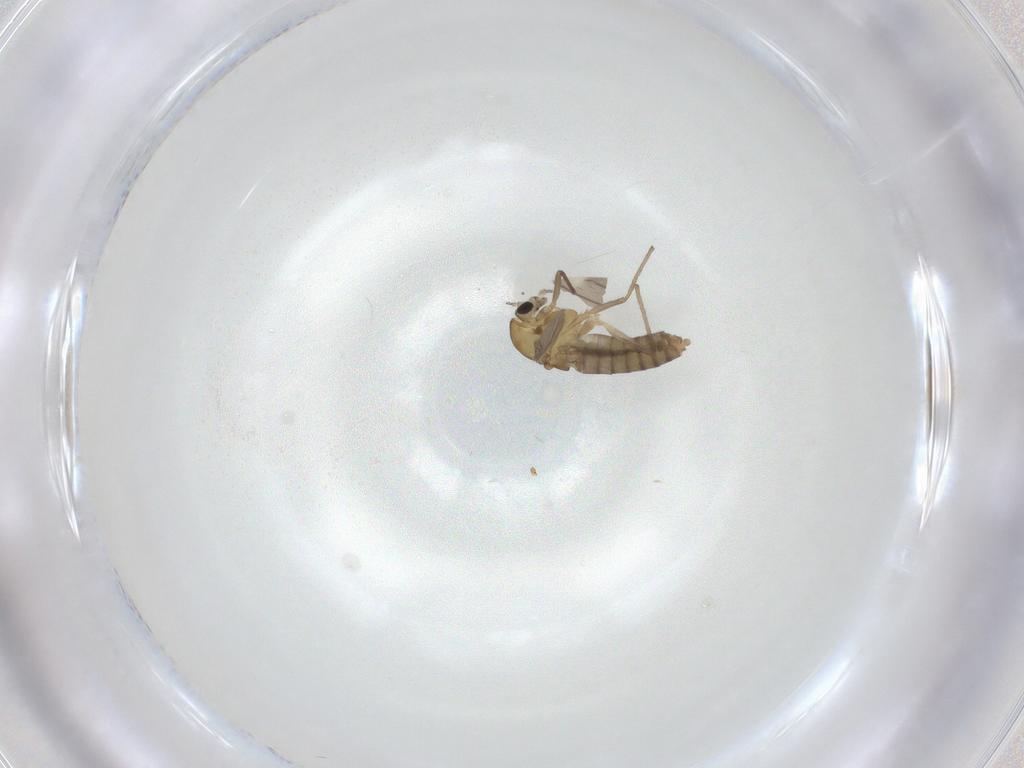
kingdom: Animalia
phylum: Arthropoda
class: Insecta
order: Diptera
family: Chironomidae
